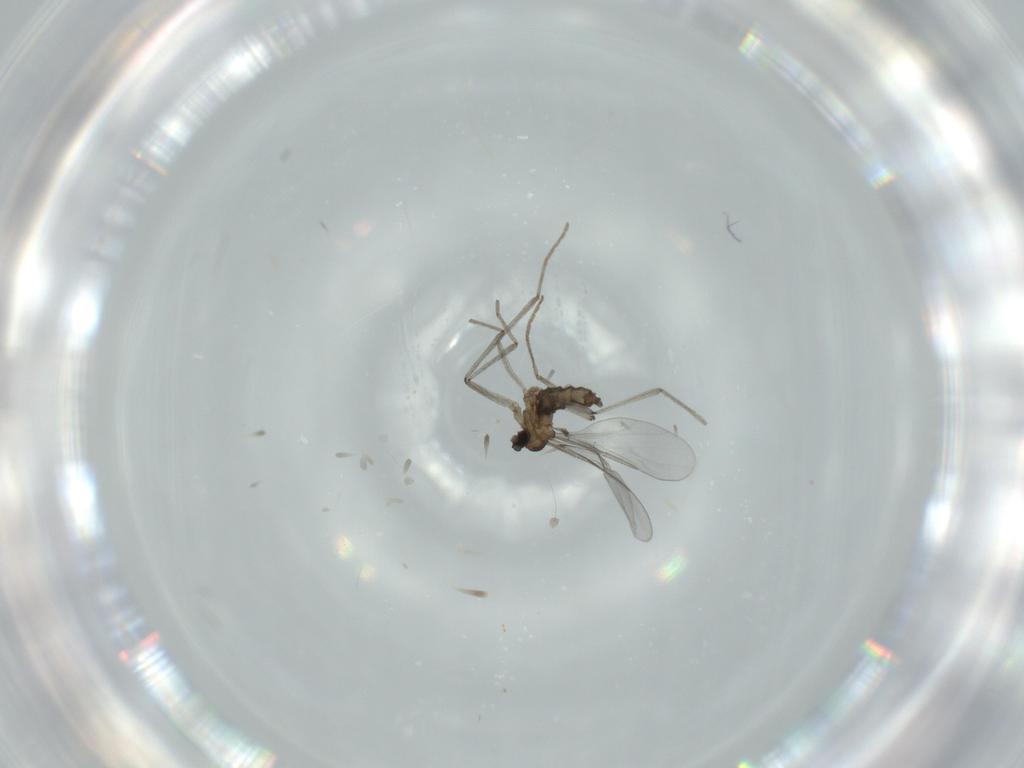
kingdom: Animalia
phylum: Arthropoda
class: Insecta
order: Diptera
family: Cecidomyiidae
